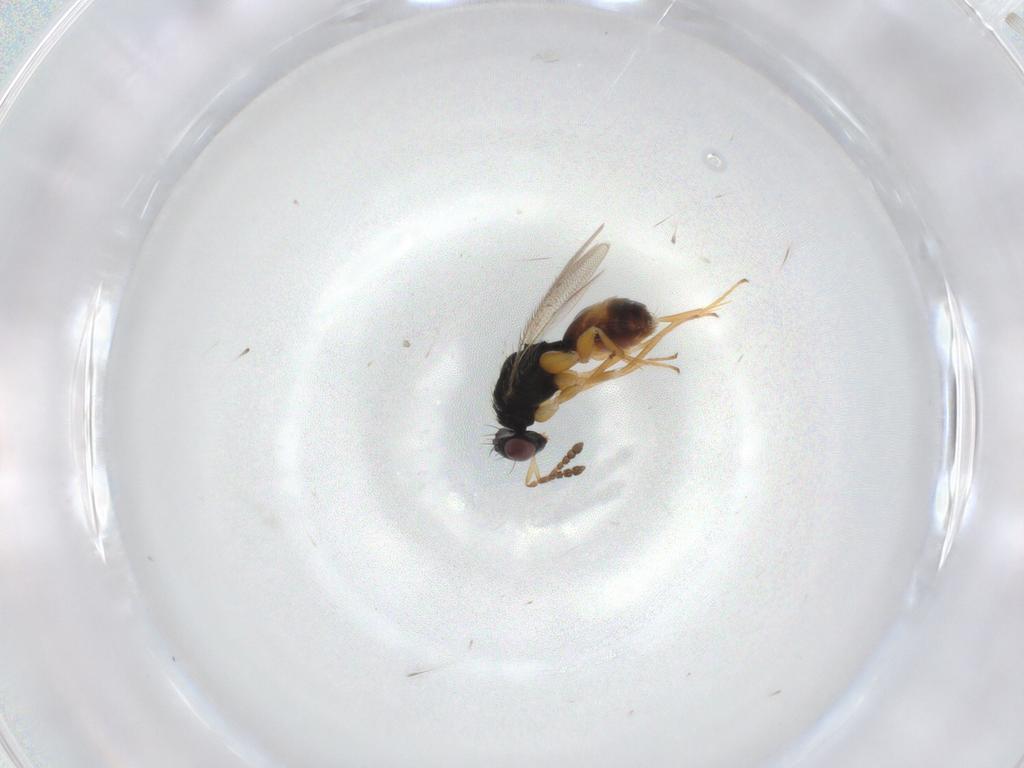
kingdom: Animalia
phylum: Arthropoda
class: Insecta
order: Hymenoptera
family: Eulophidae
